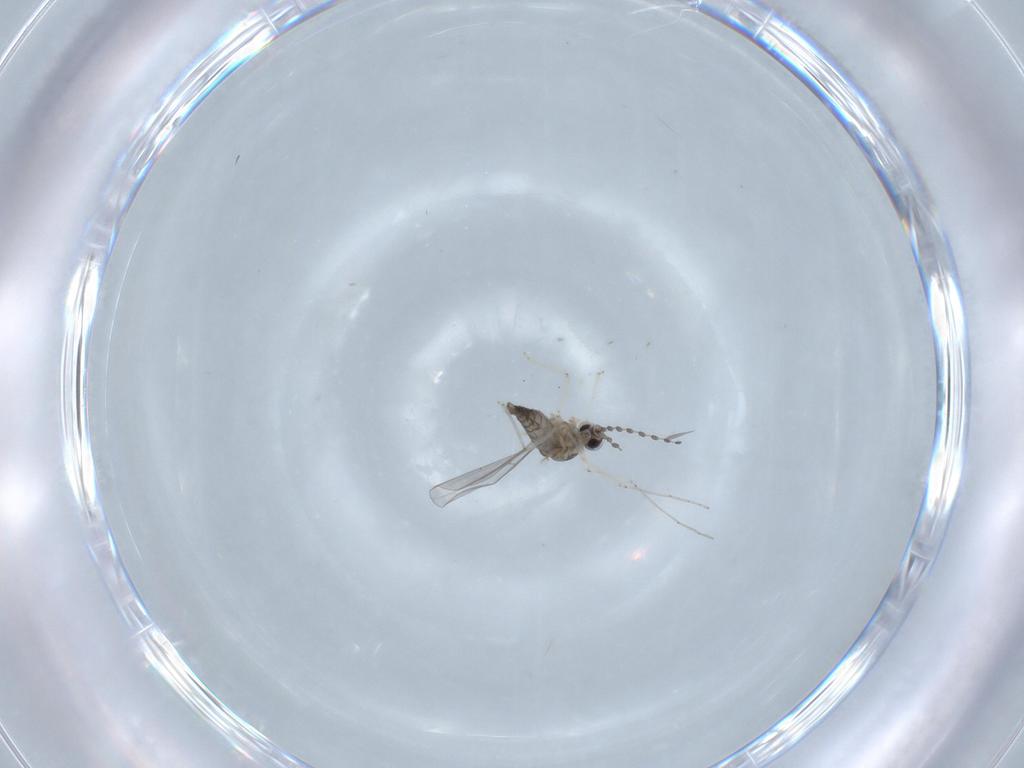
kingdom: Animalia
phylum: Arthropoda
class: Insecta
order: Diptera
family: Cecidomyiidae
